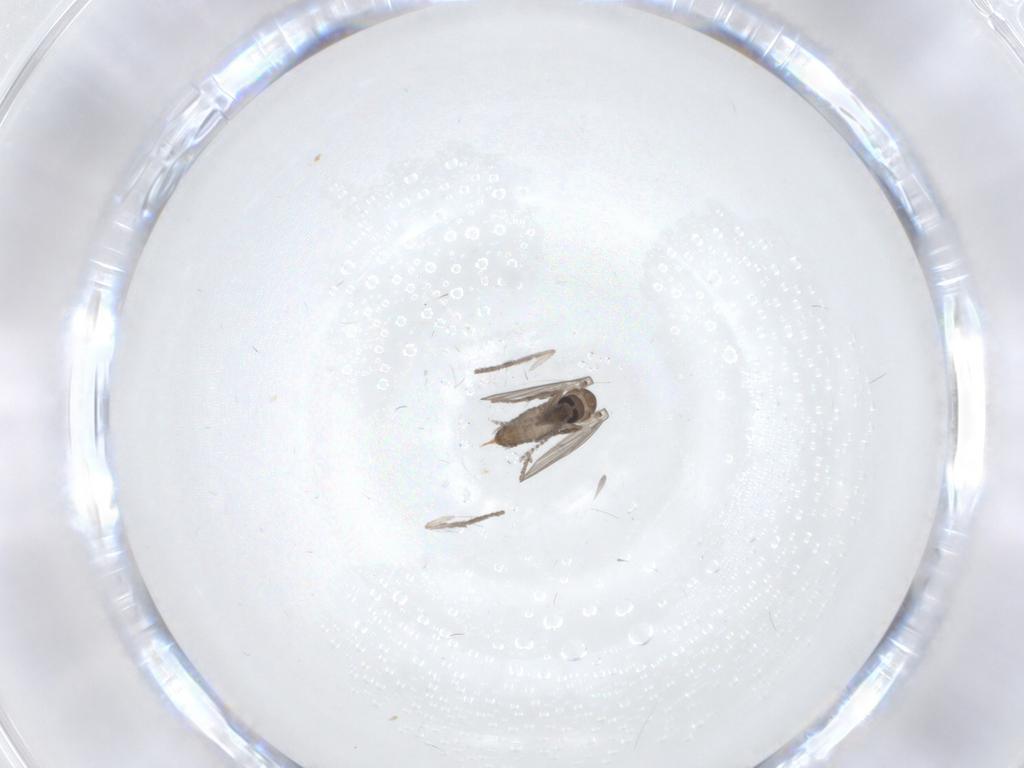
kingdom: Animalia
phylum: Arthropoda
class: Insecta
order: Diptera
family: Psychodidae
